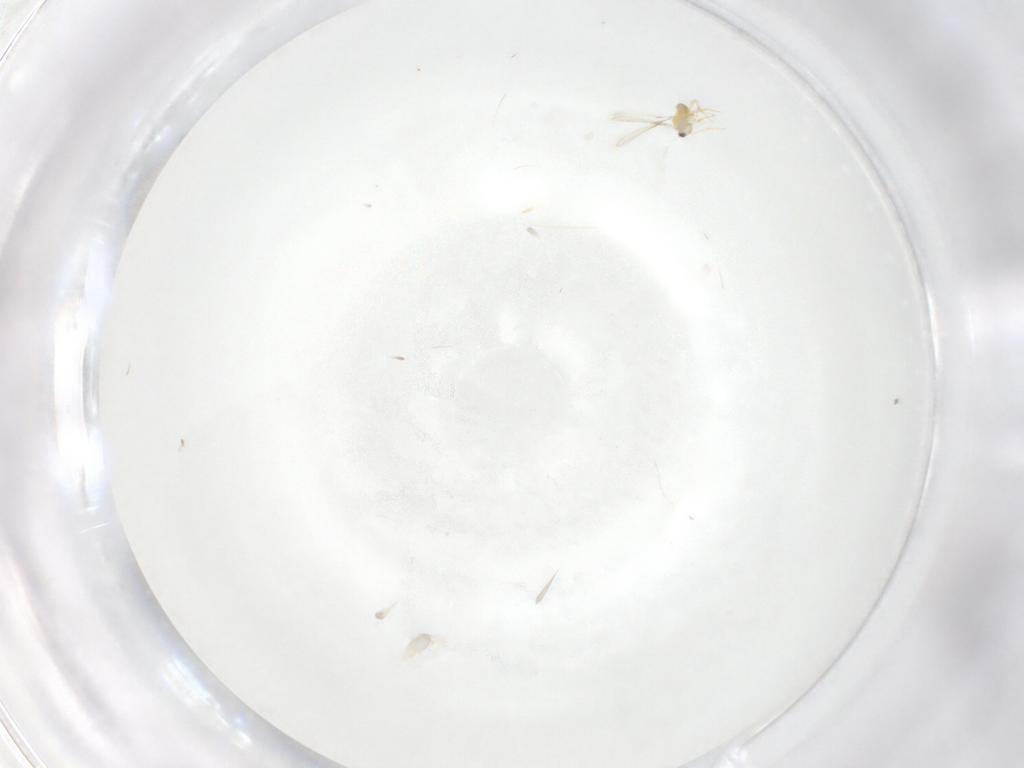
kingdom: Animalia
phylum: Arthropoda
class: Insecta
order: Hymenoptera
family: Mymaridae
